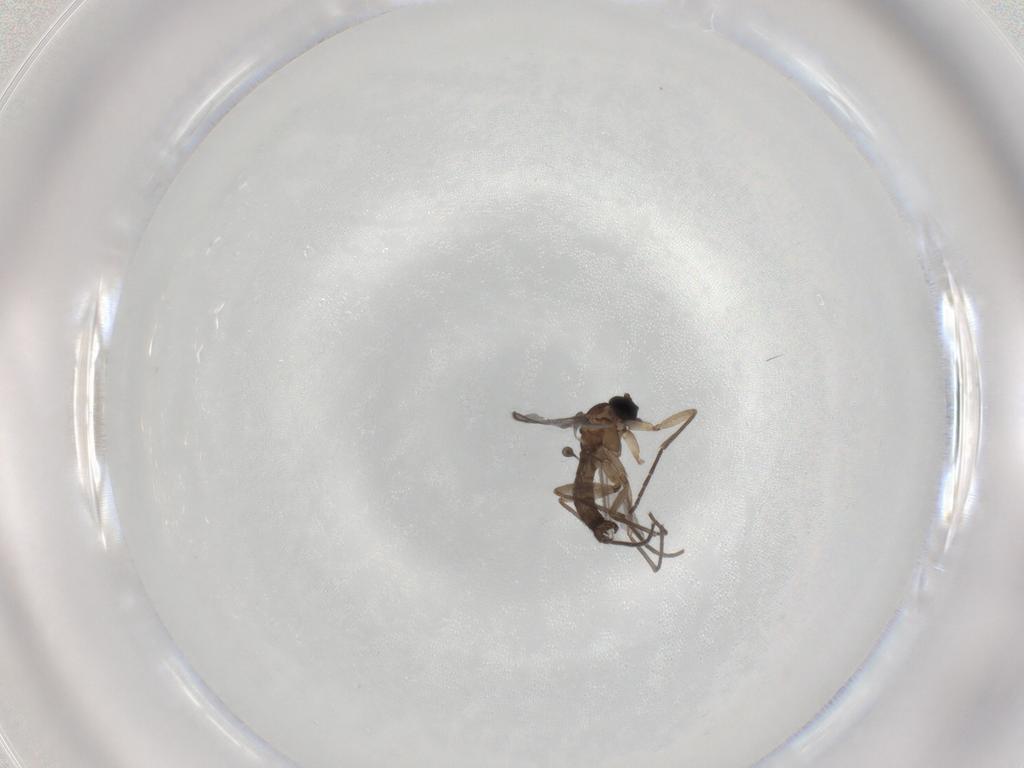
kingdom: Animalia
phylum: Arthropoda
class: Insecta
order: Diptera
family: Sciaridae
